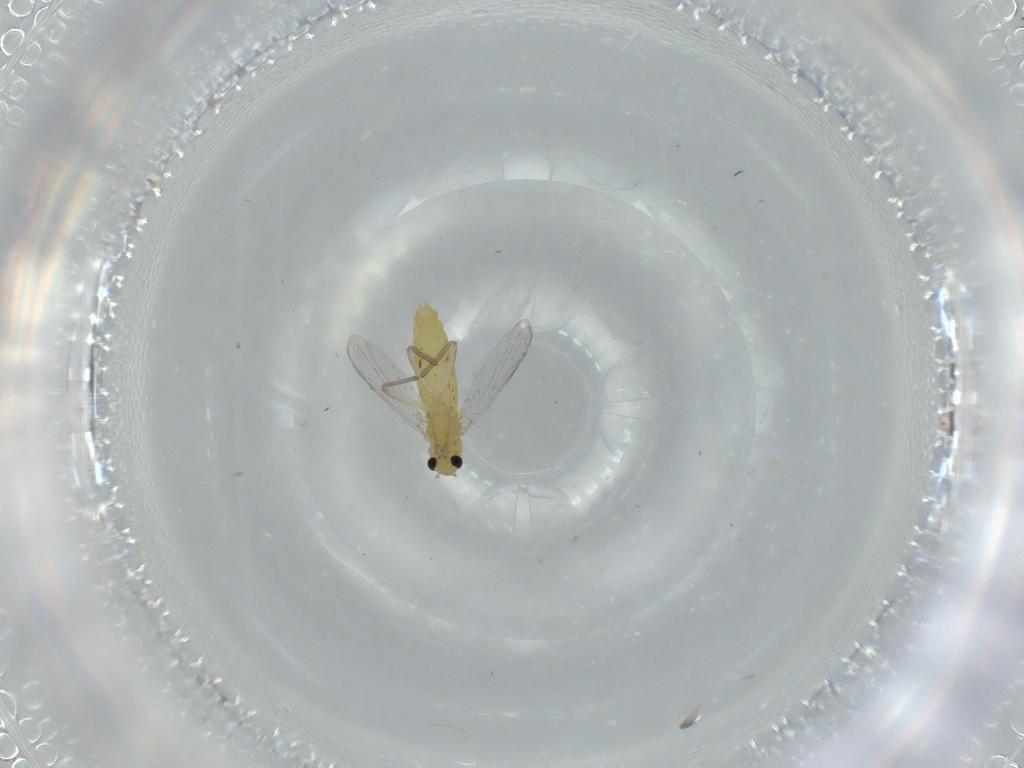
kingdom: Animalia
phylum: Arthropoda
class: Insecta
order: Diptera
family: Chironomidae
